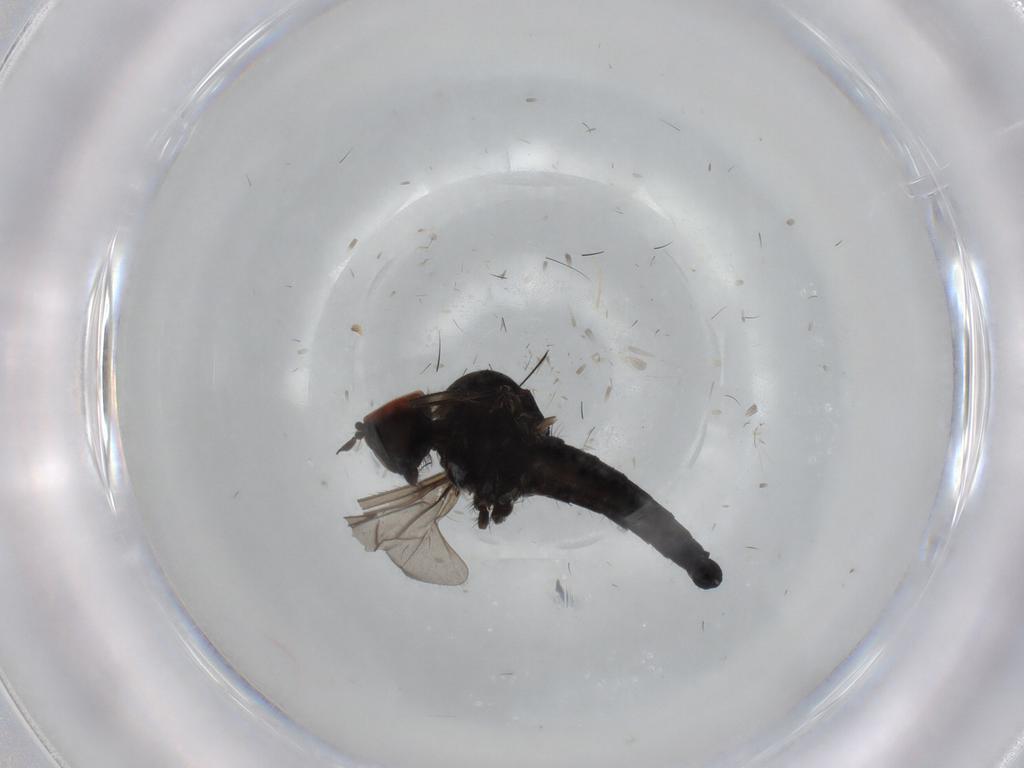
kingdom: Animalia
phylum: Arthropoda
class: Insecta
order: Diptera
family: Hybotidae
